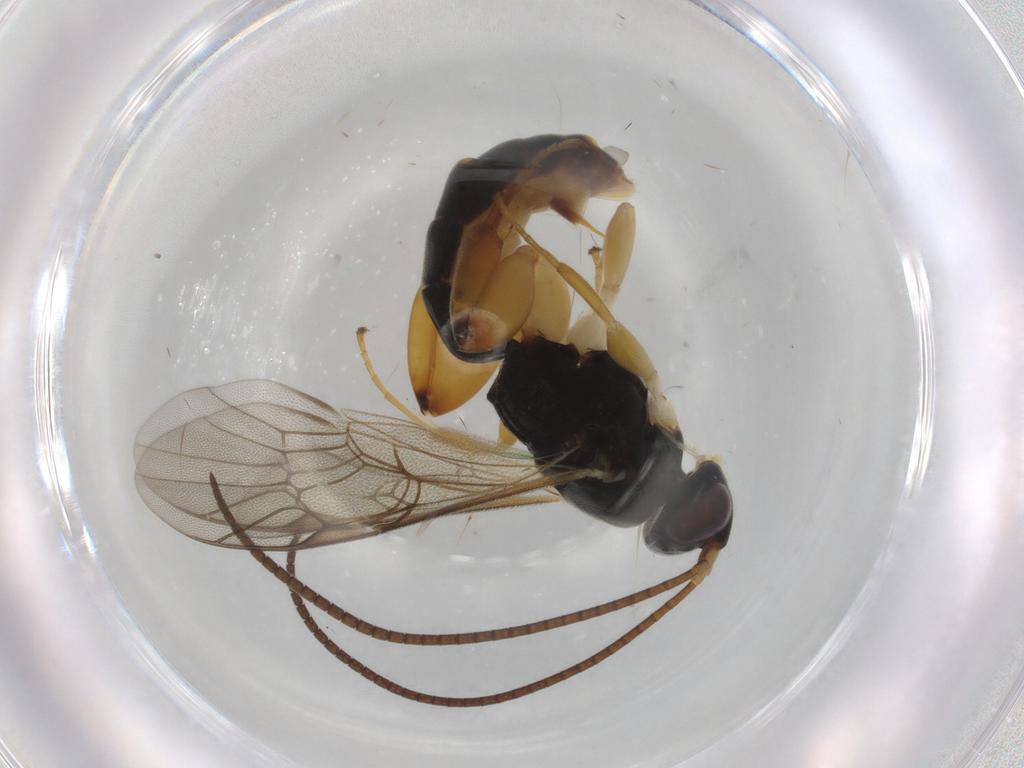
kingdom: Animalia
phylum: Arthropoda
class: Insecta
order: Hymenoptera
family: Ichneumonidae
